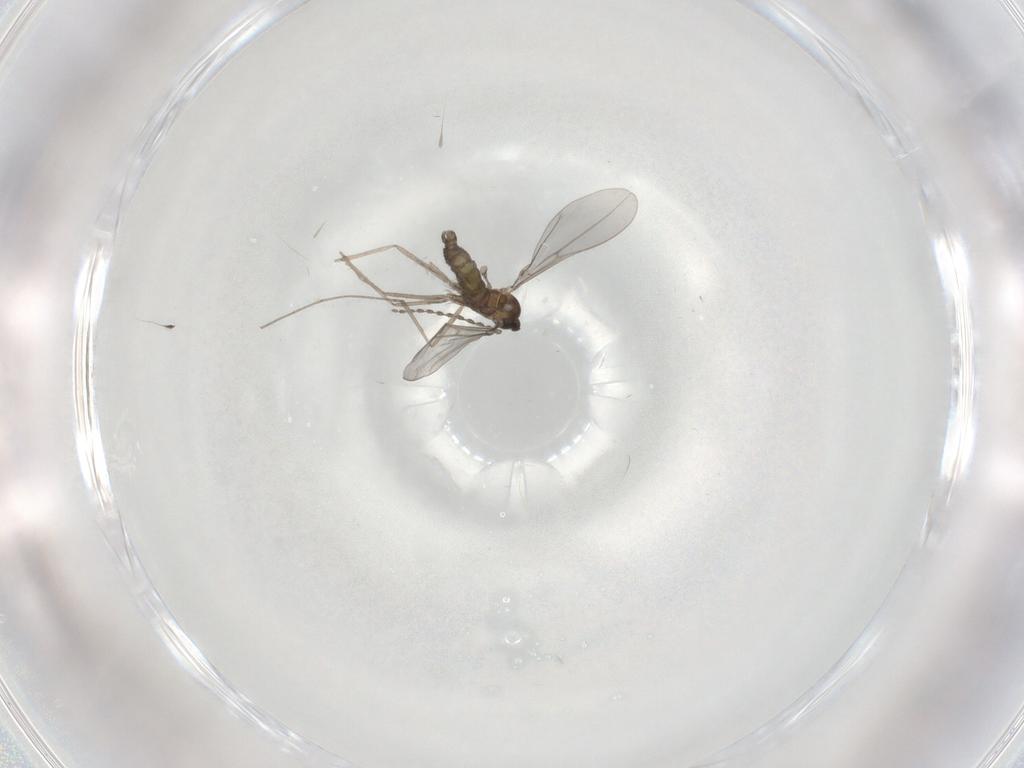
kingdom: Animalia
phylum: Arthropoda
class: Insecta
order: Diptera
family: Cecidomyiidae
